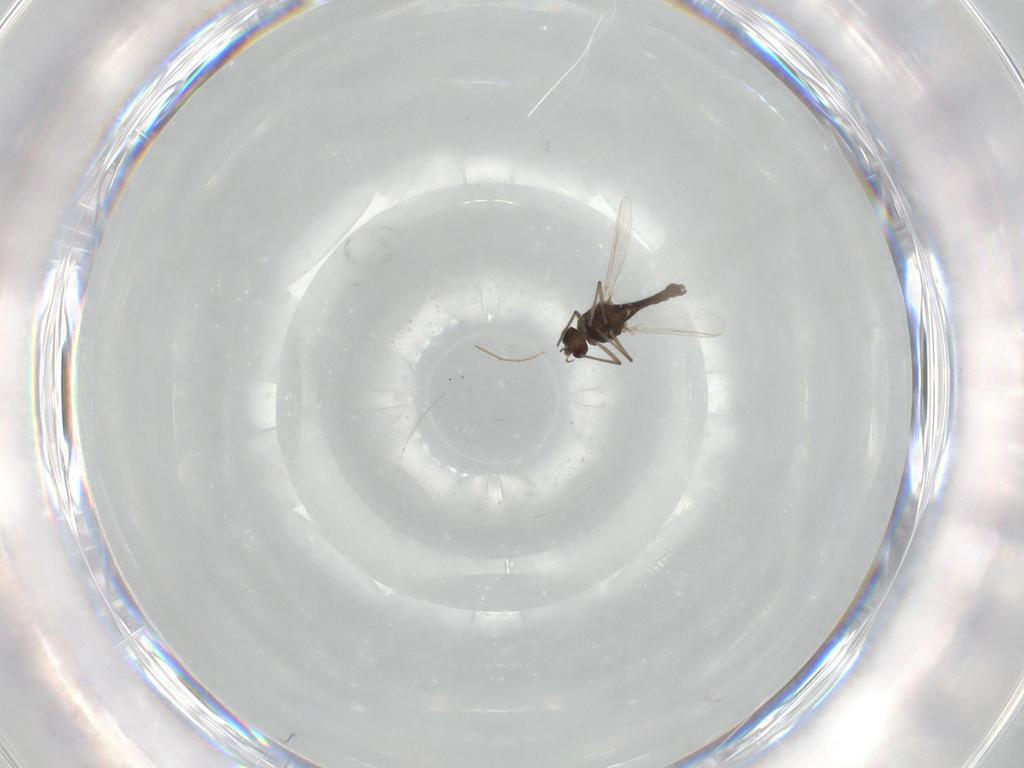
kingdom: Animalia
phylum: Arthropoda
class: Insecta
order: Diptera
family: Chironomidae
